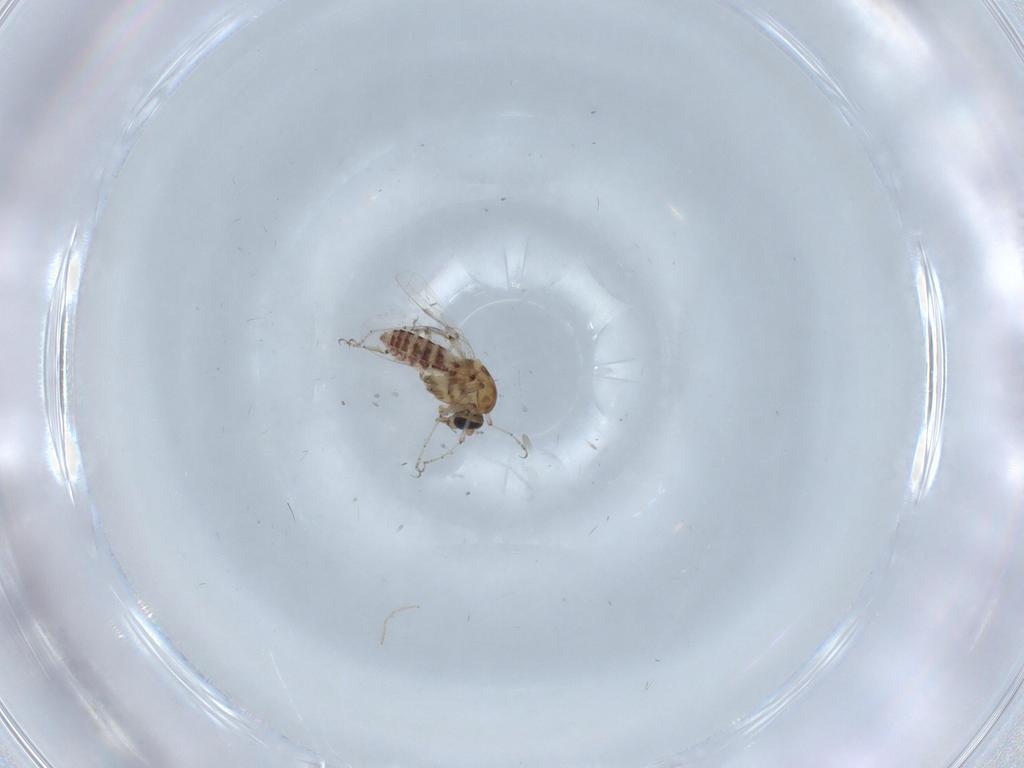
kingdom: Animalia
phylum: Arthropoda
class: Insecta
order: Diptera
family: Ceratopogonidae
